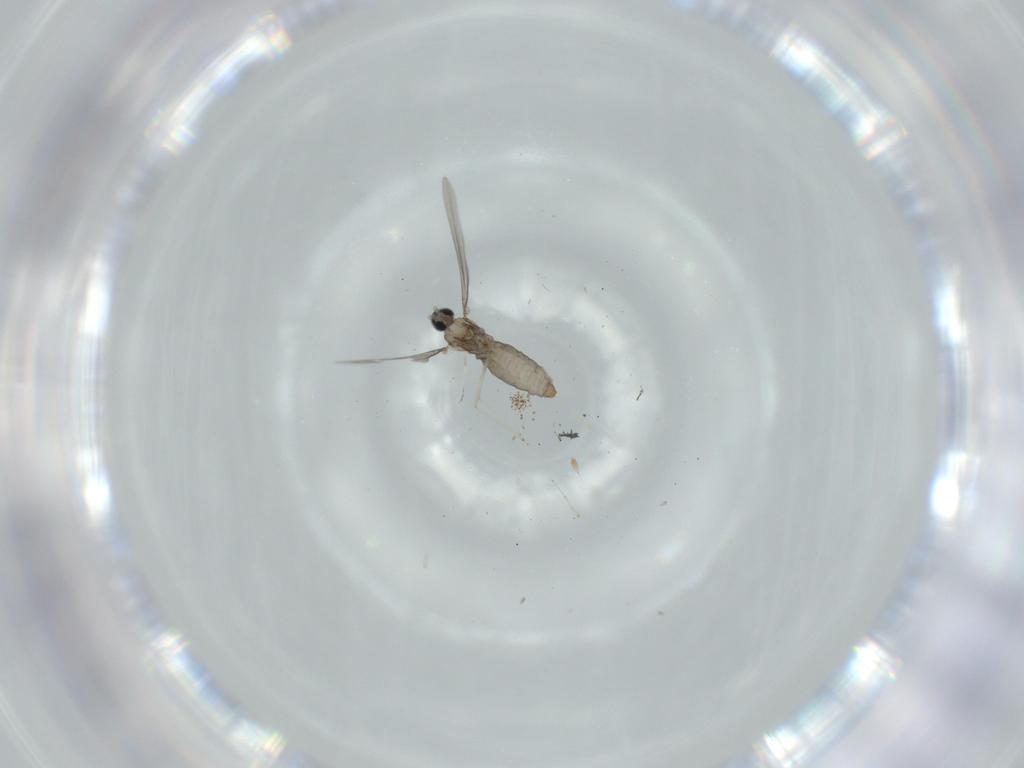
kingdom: Animalia
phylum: Arthropoda
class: Insecta
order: Diptera
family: Cecidomyiidae
